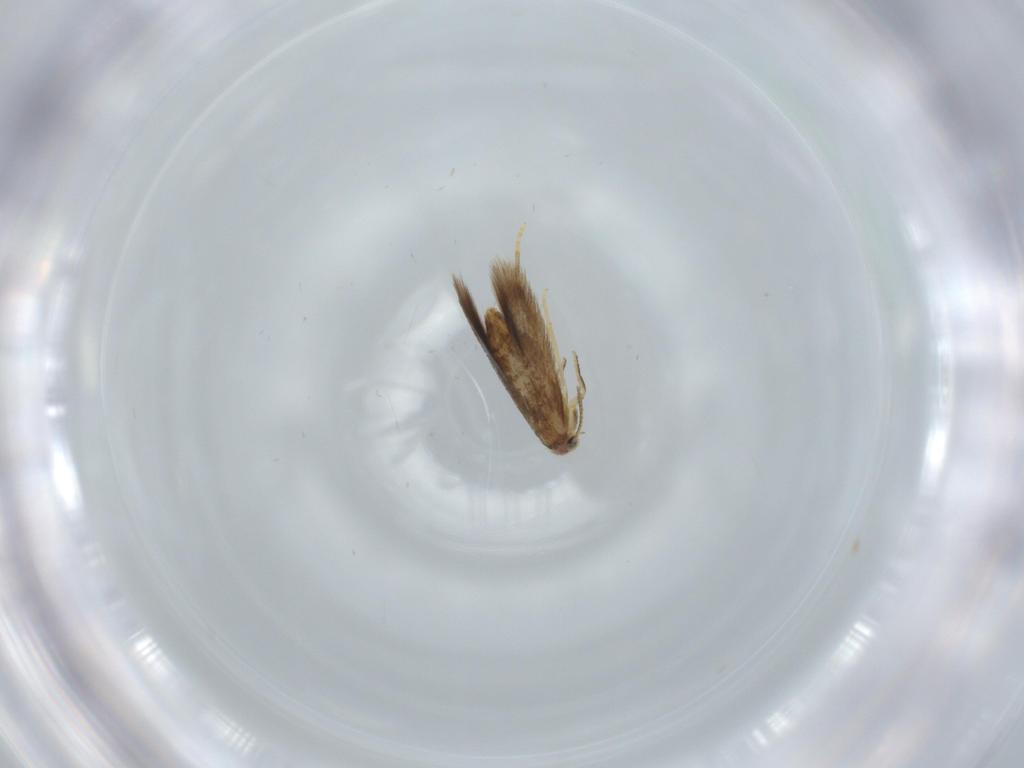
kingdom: Animalia
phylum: Arthropoda
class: Insecta
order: Lepidoptera
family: Nepticulidae
